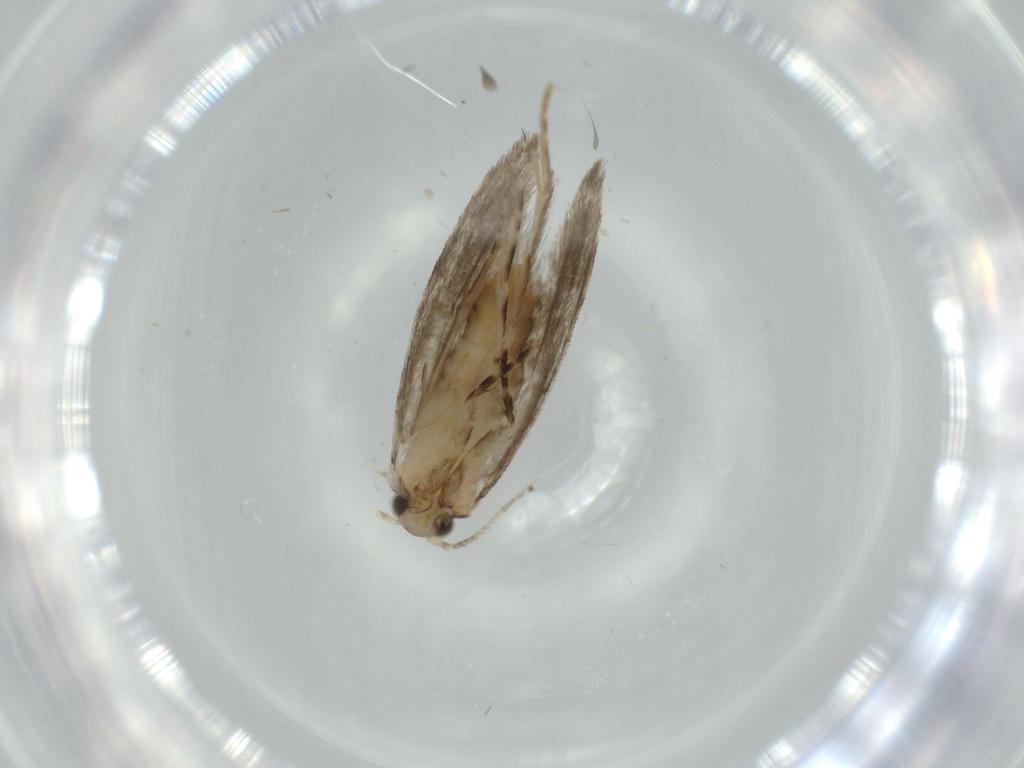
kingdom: Animalia
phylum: Arthropoda
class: Insecta
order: Lepidoptera
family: Tineidae
